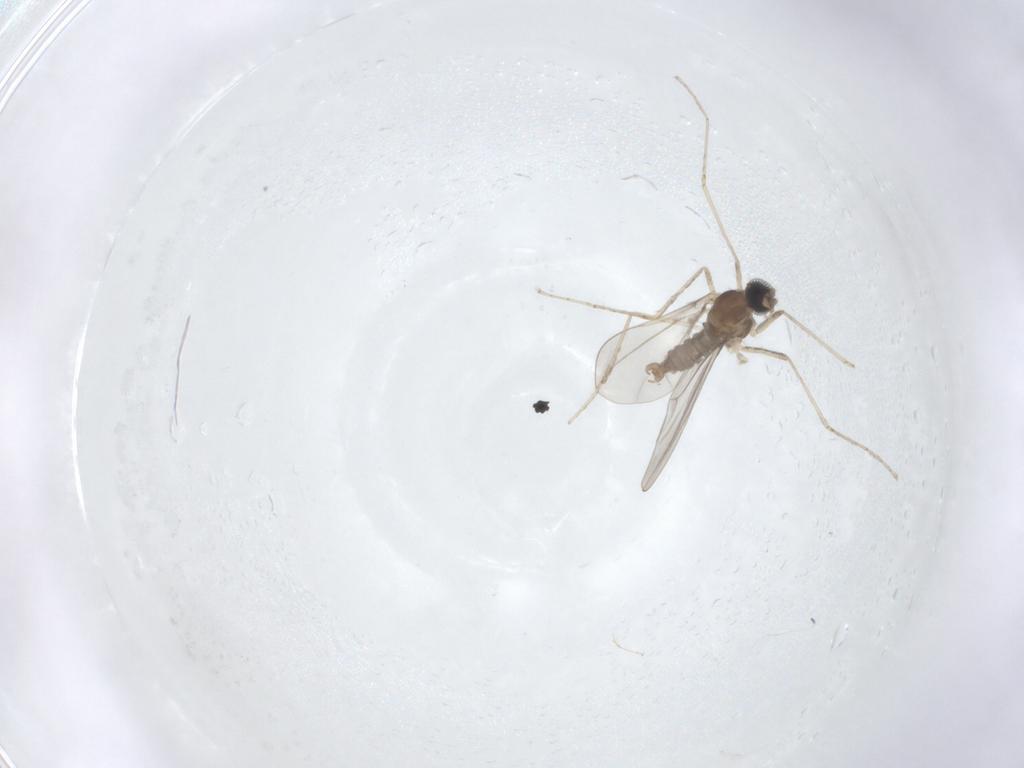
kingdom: Animalia
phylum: Arthropoda
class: Insecta
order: Diptera
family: Cecidomyiidae
